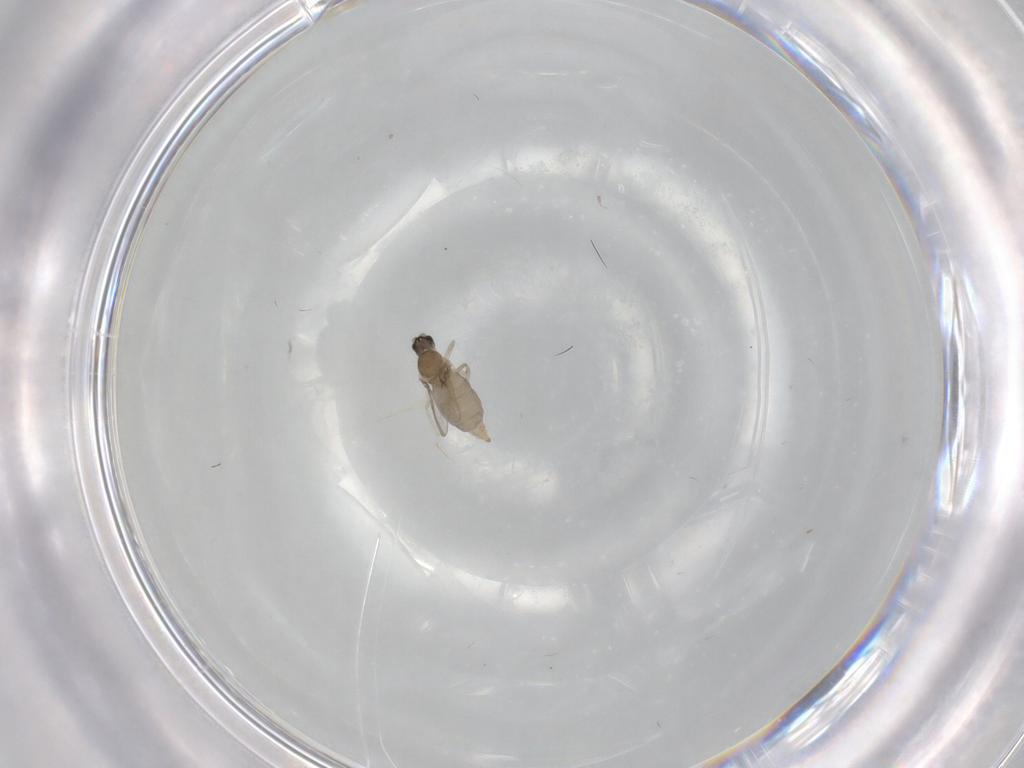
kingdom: Animalia
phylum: Arthropoda
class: Insecta
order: Diptera
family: Cecidomyiidae
